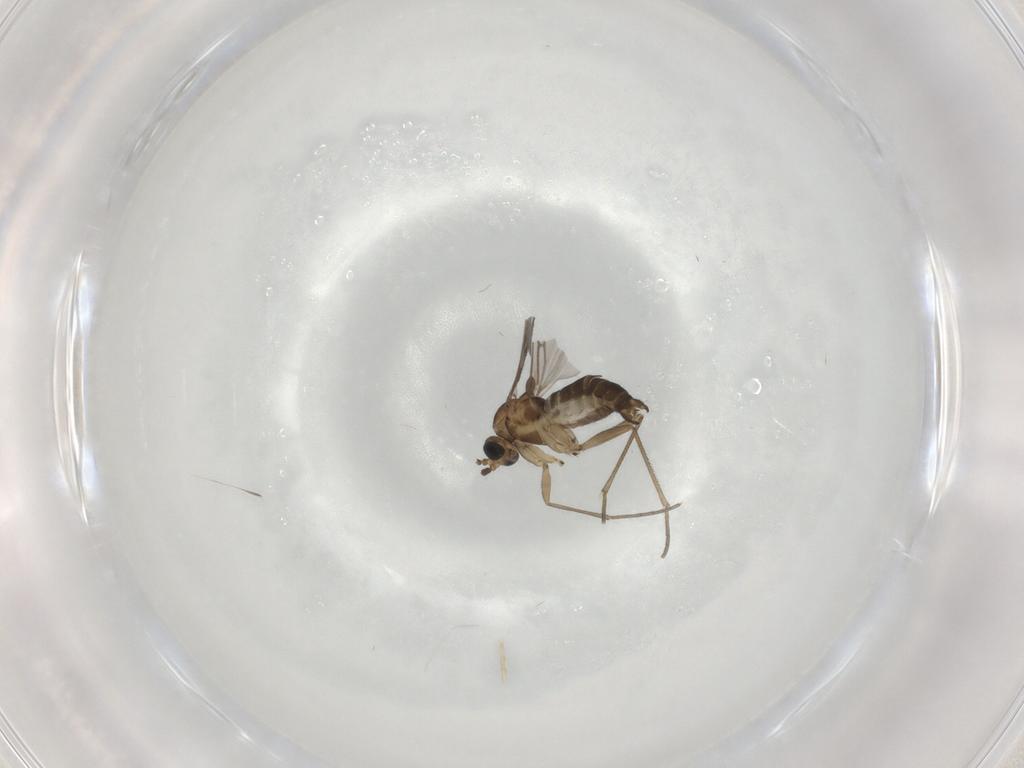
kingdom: Animalia
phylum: Arthropoda
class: Insecta
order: Diptera
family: Sciaridae
